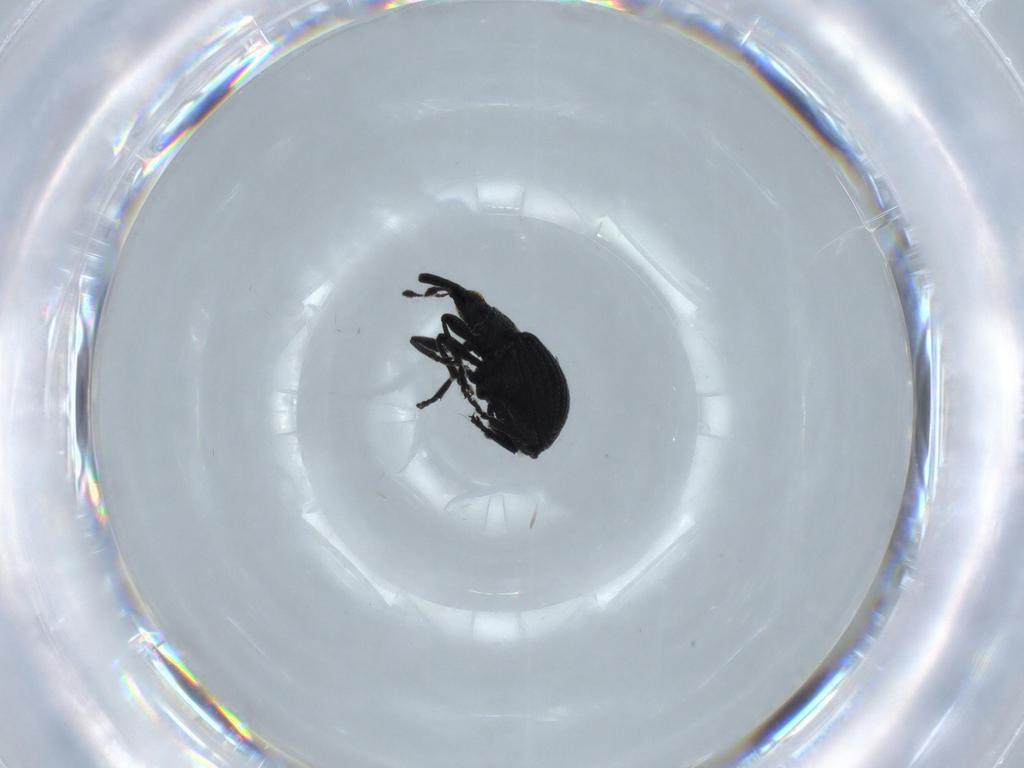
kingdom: Animalia
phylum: Arthropoda
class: Insecta
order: Coleoptera
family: Brentidae
